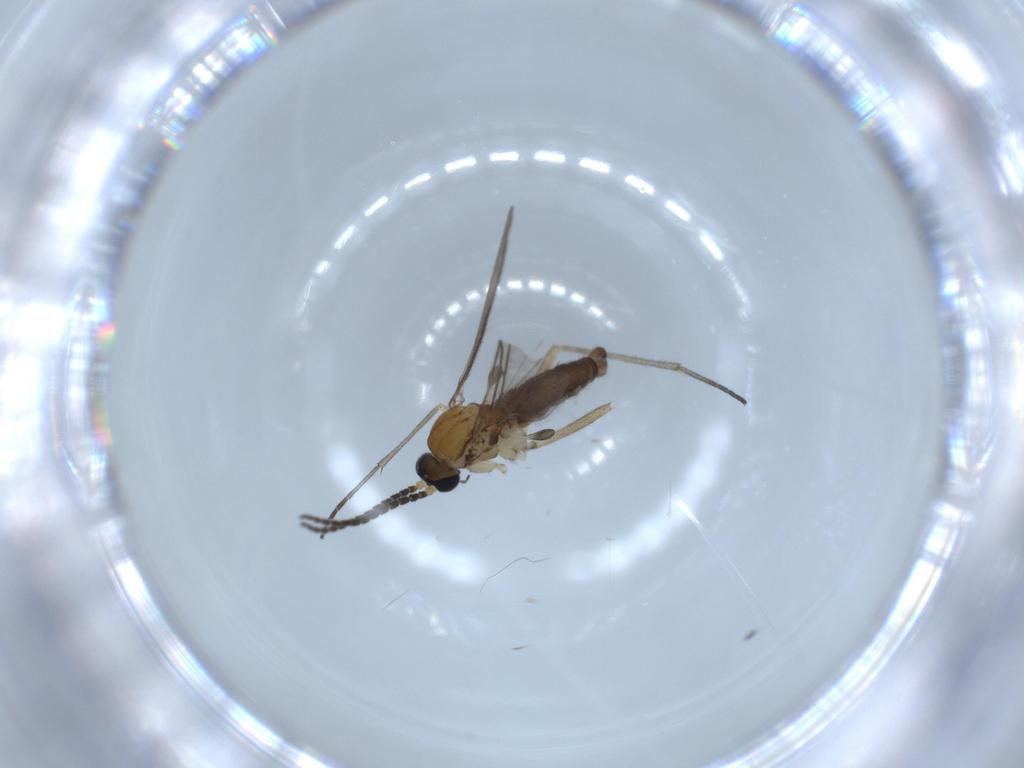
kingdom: Animalia
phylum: Arthropoda
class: Insecta
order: Diptera
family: Sciaridae
